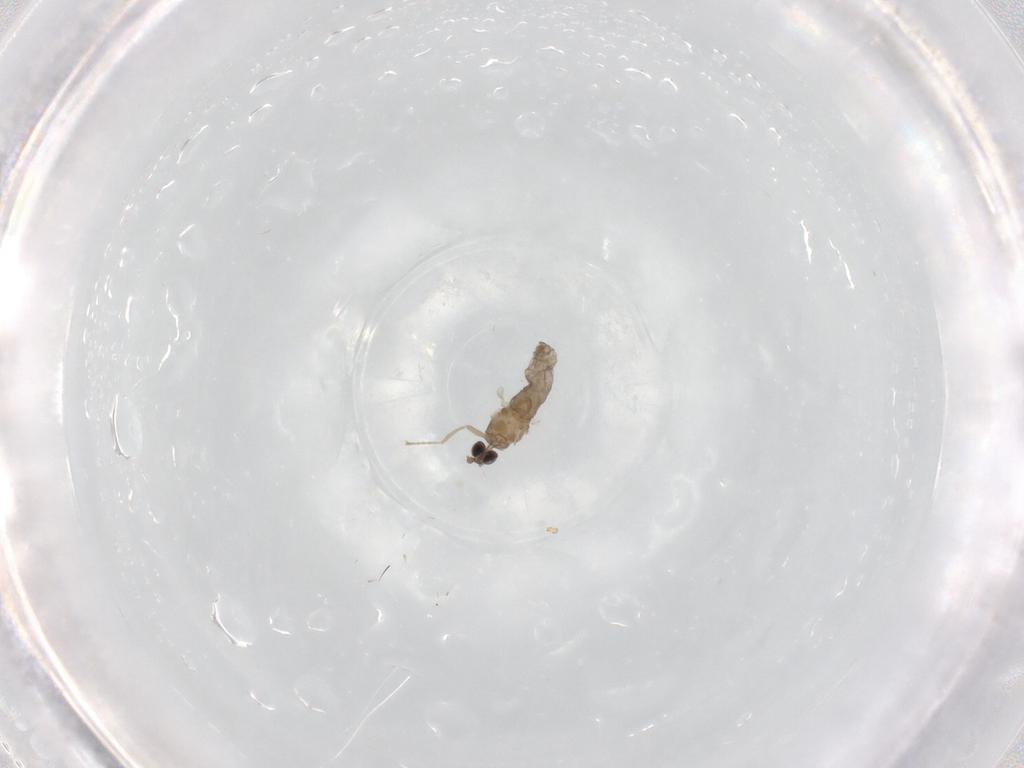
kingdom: Animalia
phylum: Arthropoda
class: Insecta
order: Diptera
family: Cecidomyiidae
